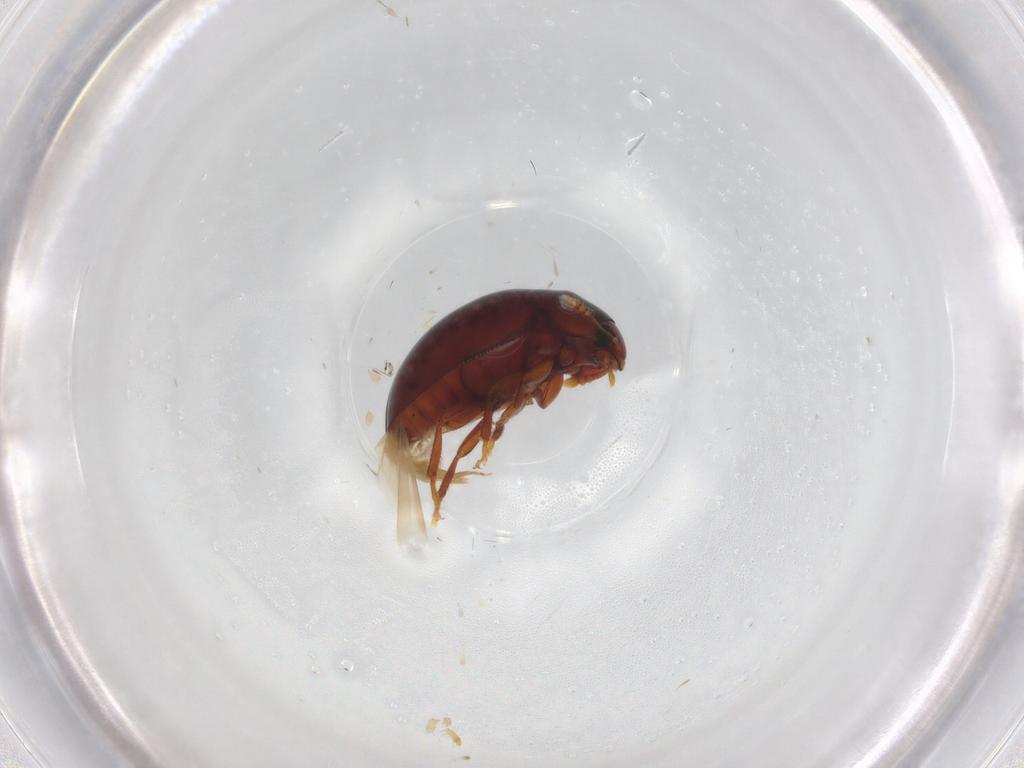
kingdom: Animalia
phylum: Arthropoda
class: Insecta
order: Coleoptera
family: Phalacridae
